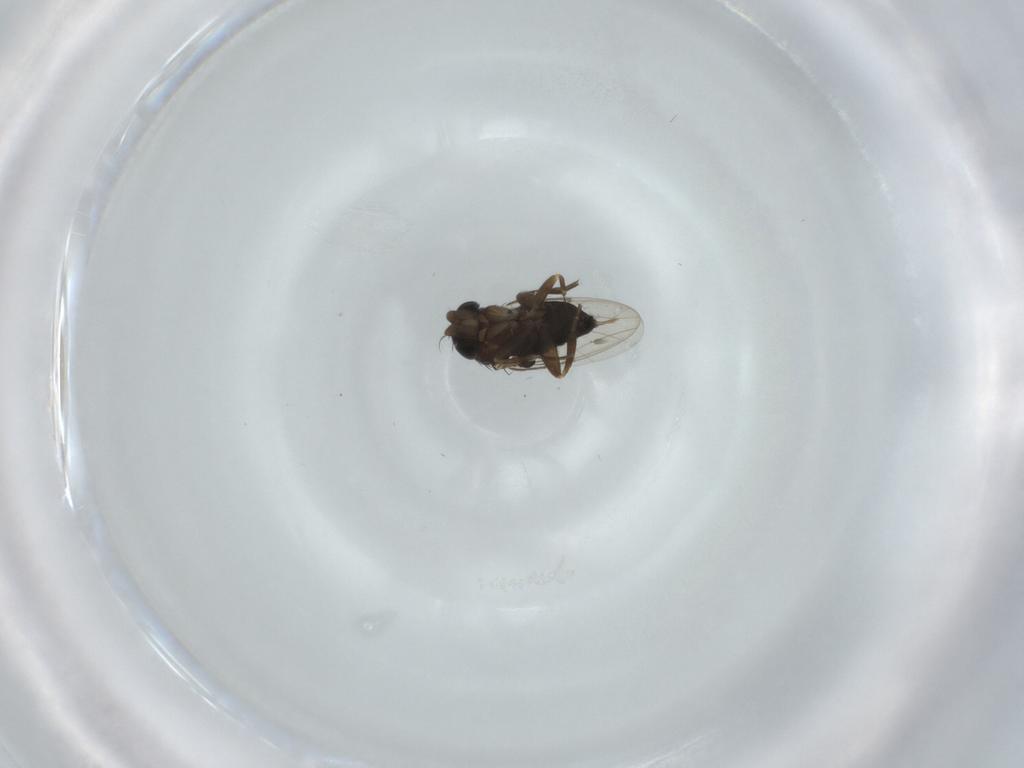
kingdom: Animalia
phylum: Arthropoda
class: Insecta
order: Diptera
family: Phoridae
